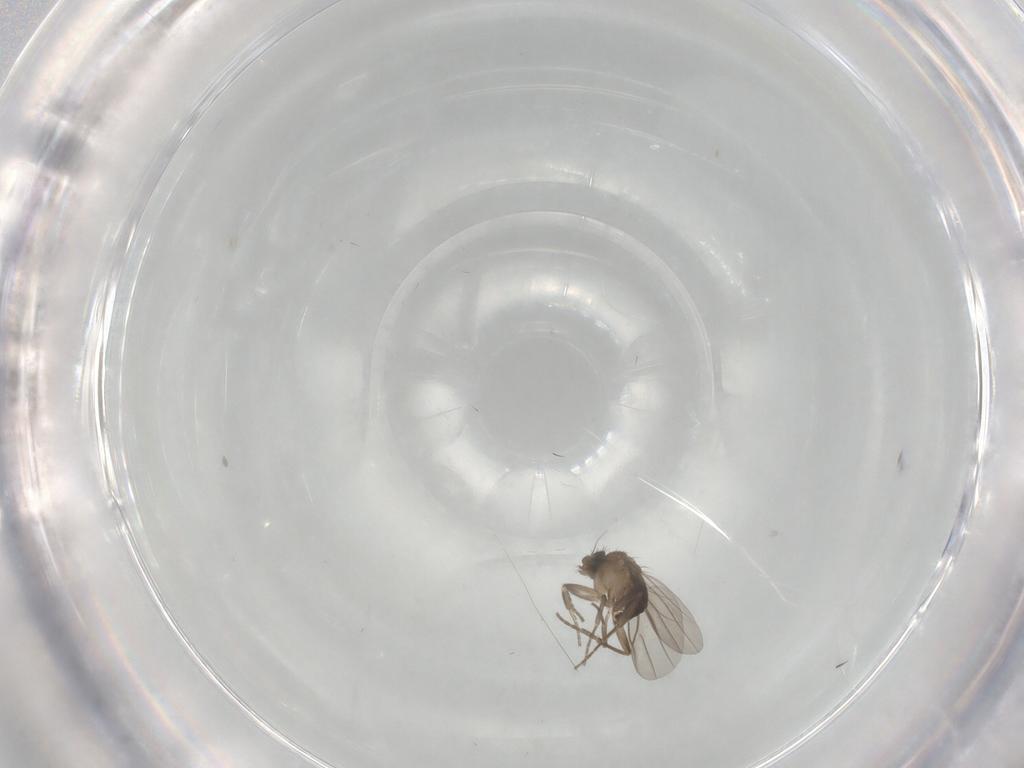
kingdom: Animalia
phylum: Arthropoda
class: Insecta
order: Diptera
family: Phoridae
